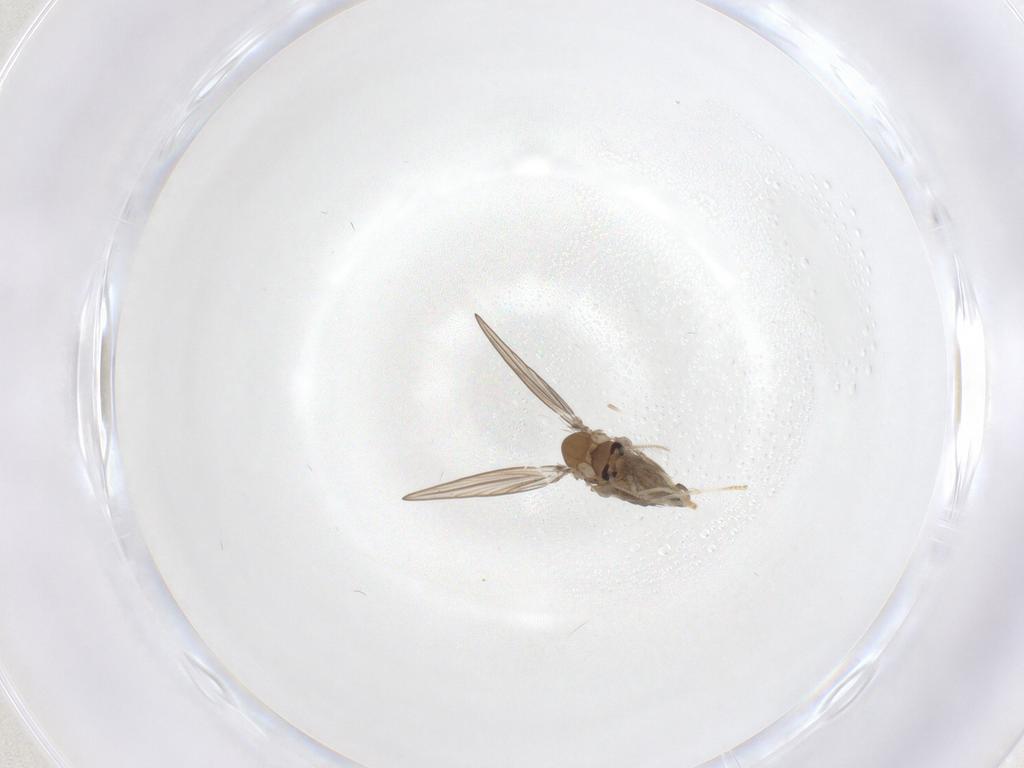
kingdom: Animalia
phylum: Arthropoda
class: Insecta
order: Diptera
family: Psychodidae
